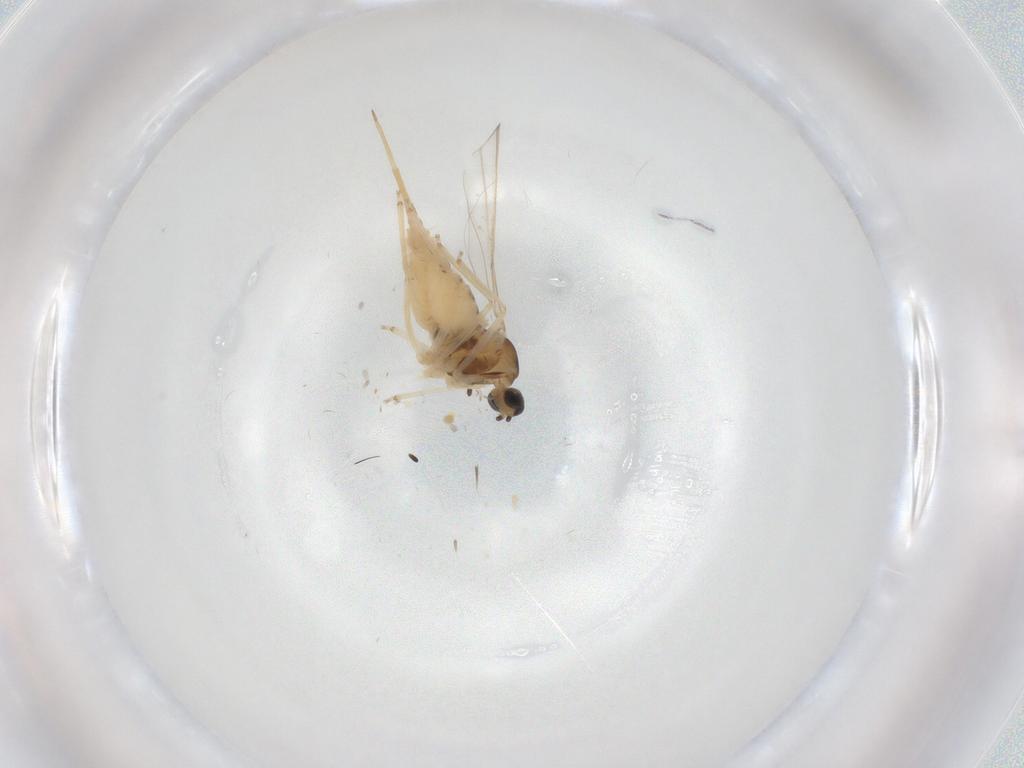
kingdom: Animalia
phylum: Arthropoda
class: Insecta
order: Diptera
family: Cecidomyiidae
